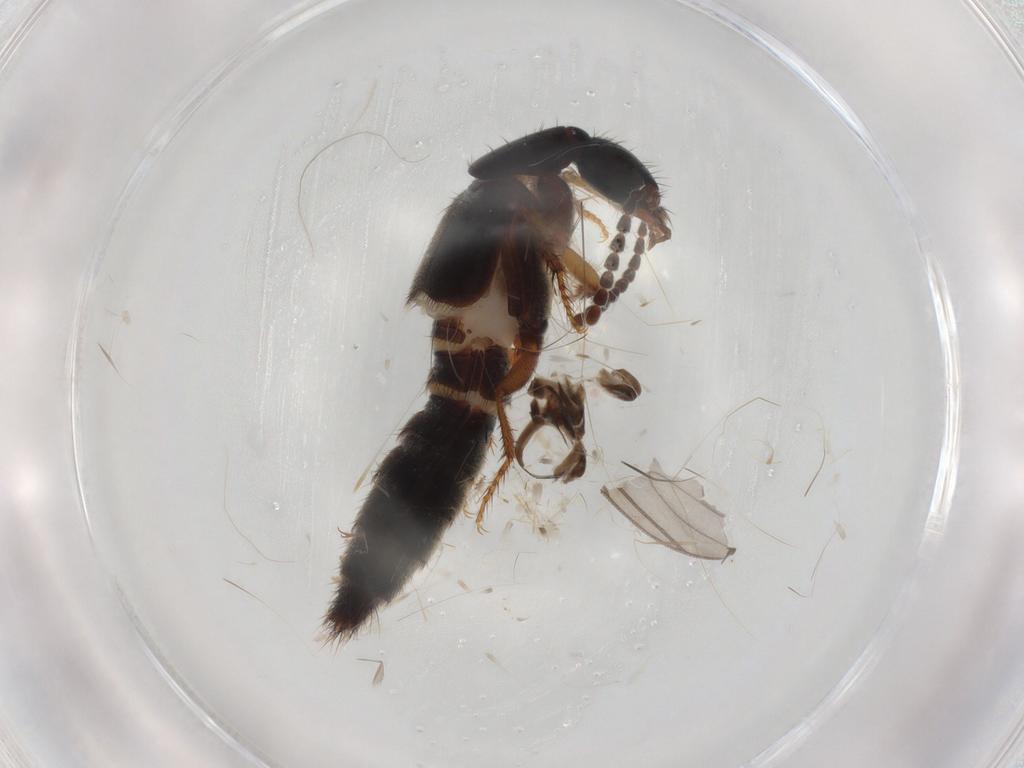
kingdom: Animalia
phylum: Arthropoda
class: Insecta
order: Coleoptera
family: Staphylinidae
